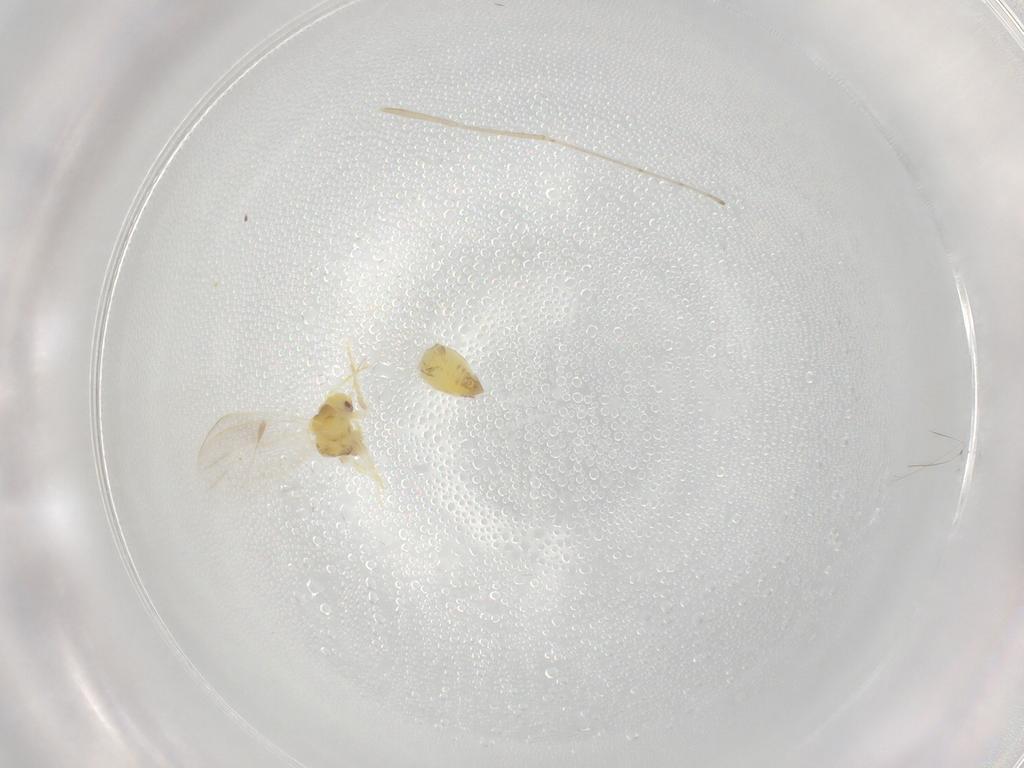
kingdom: Animalia
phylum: Arthropoda
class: Insecta
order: Hemiptera
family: Aleyrodidae
